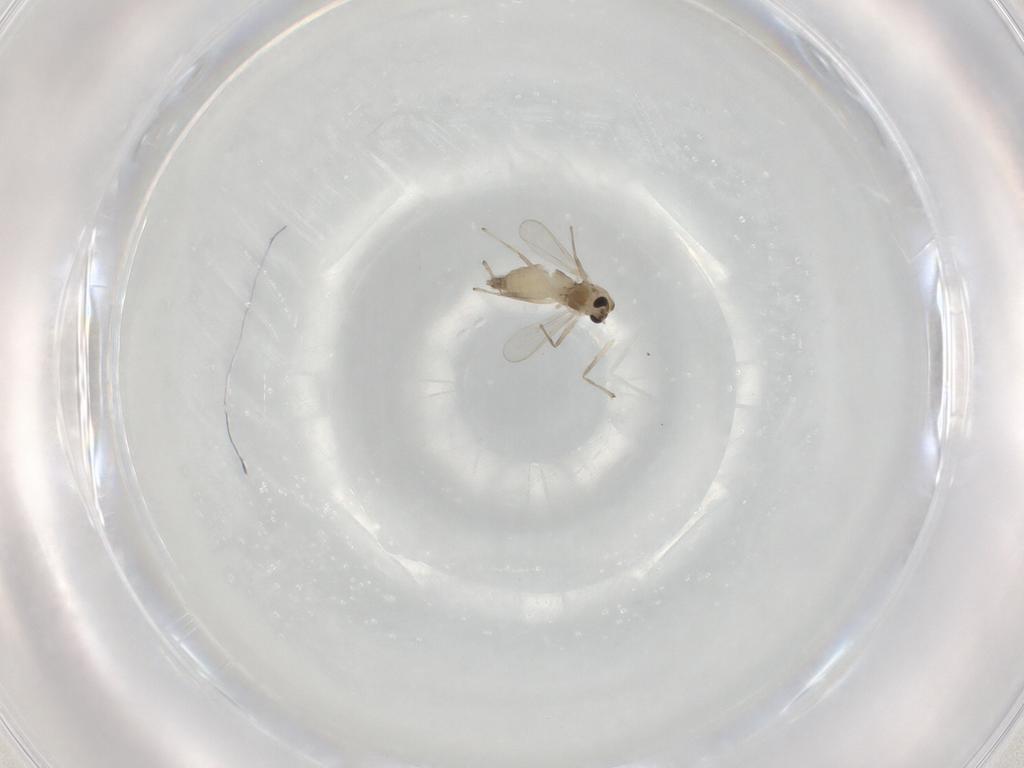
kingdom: Animalia
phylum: Arthropoda
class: Insecta
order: Diptera
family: Chironomidae
